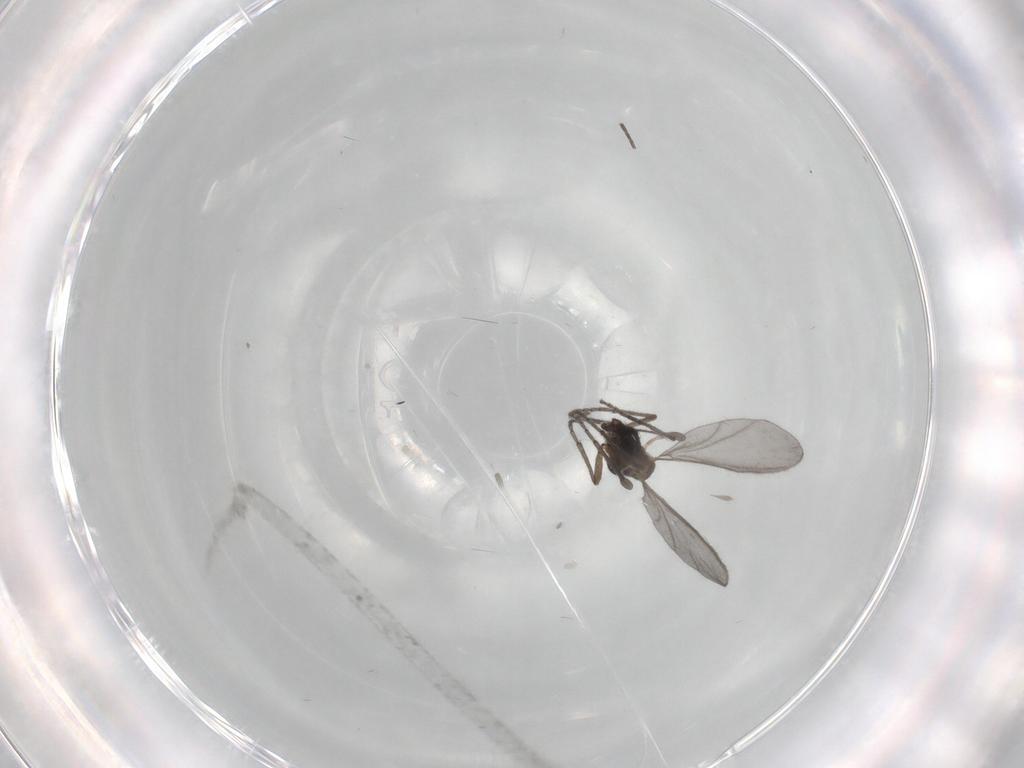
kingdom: Animalia
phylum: Arthropoda
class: Insecta
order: Diptera
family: Sciaridae
